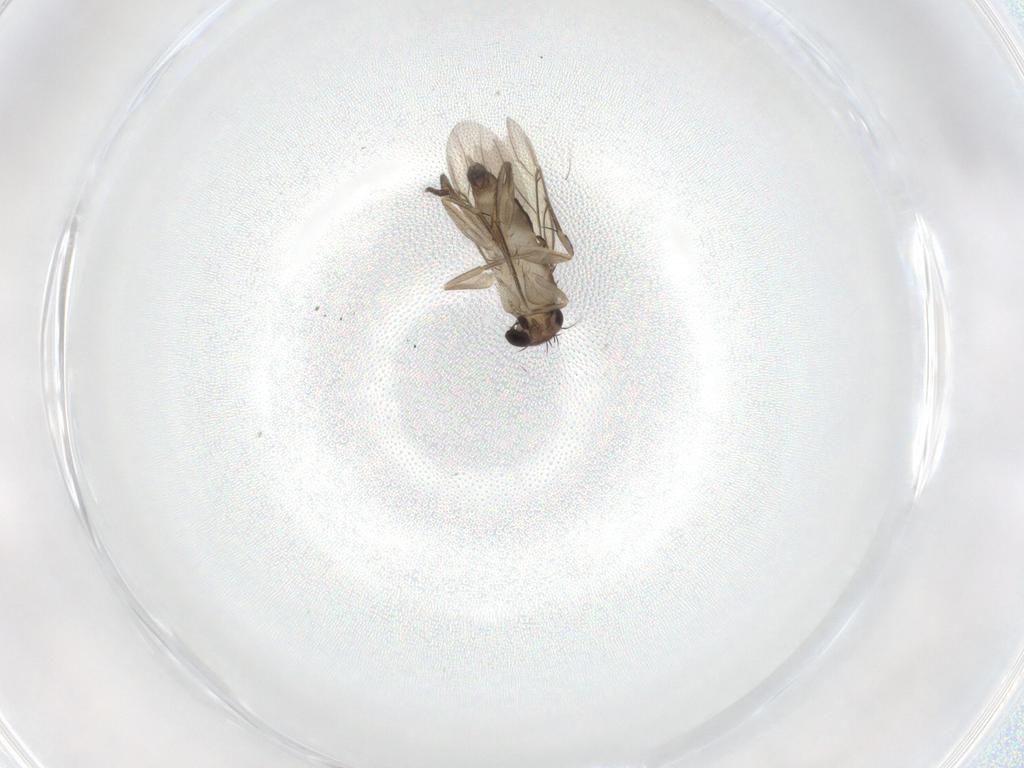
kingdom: Animalia
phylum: Arthropoda
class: Insecta
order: Diptera
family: Phoridae
